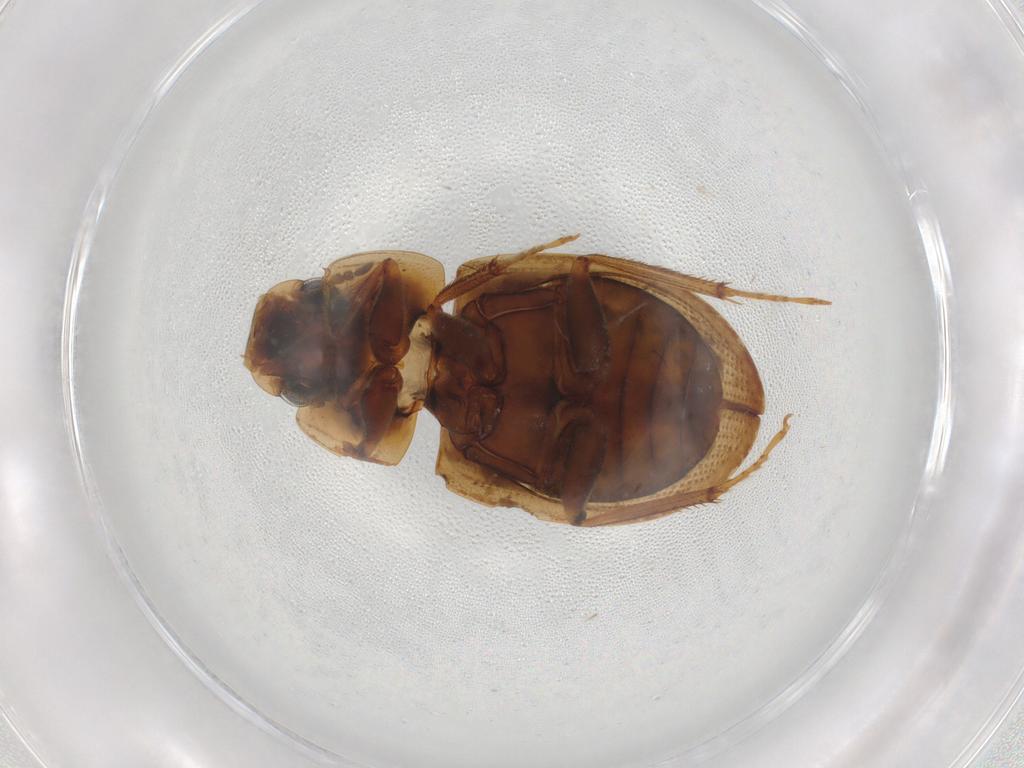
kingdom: Animalia
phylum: Arthropoda
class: Insecta
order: Coleoptera
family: Hydrophilidae
